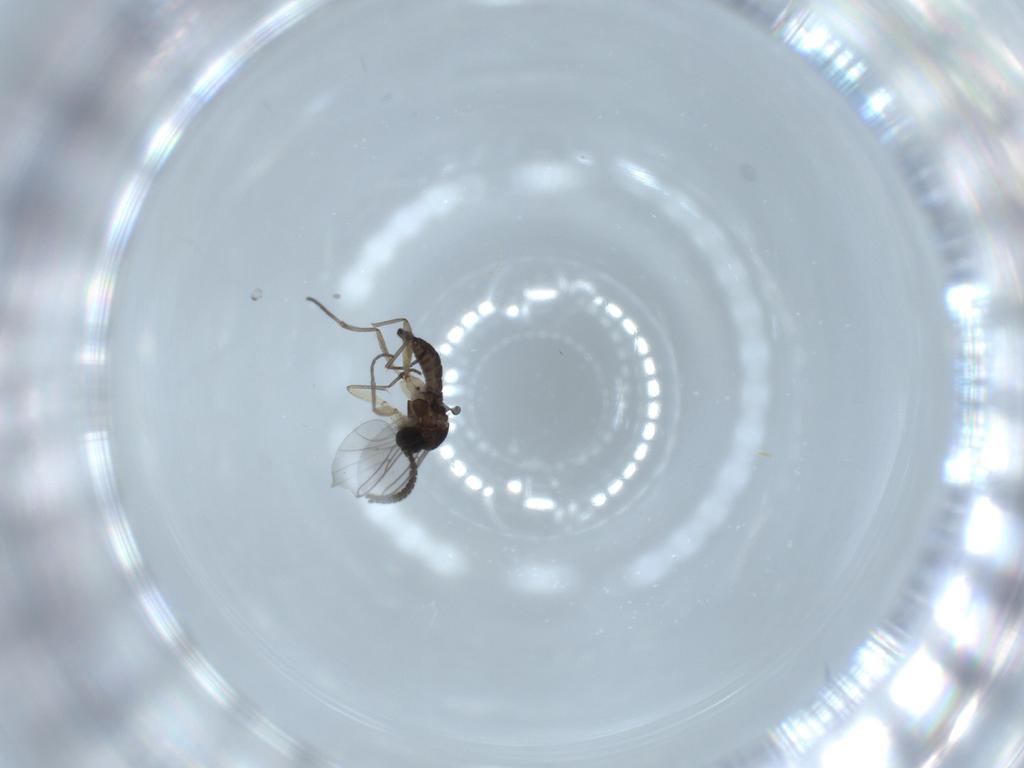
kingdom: Animalia
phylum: Arthropoda
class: Insecta
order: Diptera
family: Sciaridae
